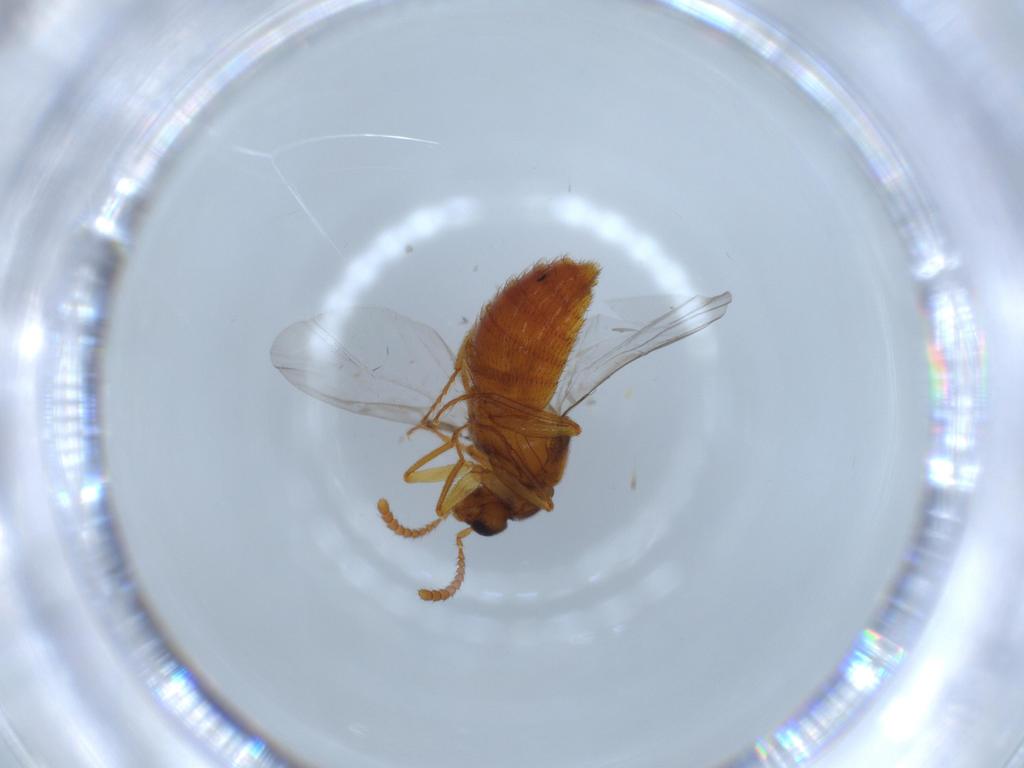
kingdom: Animalia
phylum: Arthropoda
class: Insecta
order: Coleoptera
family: Staphylinidae
